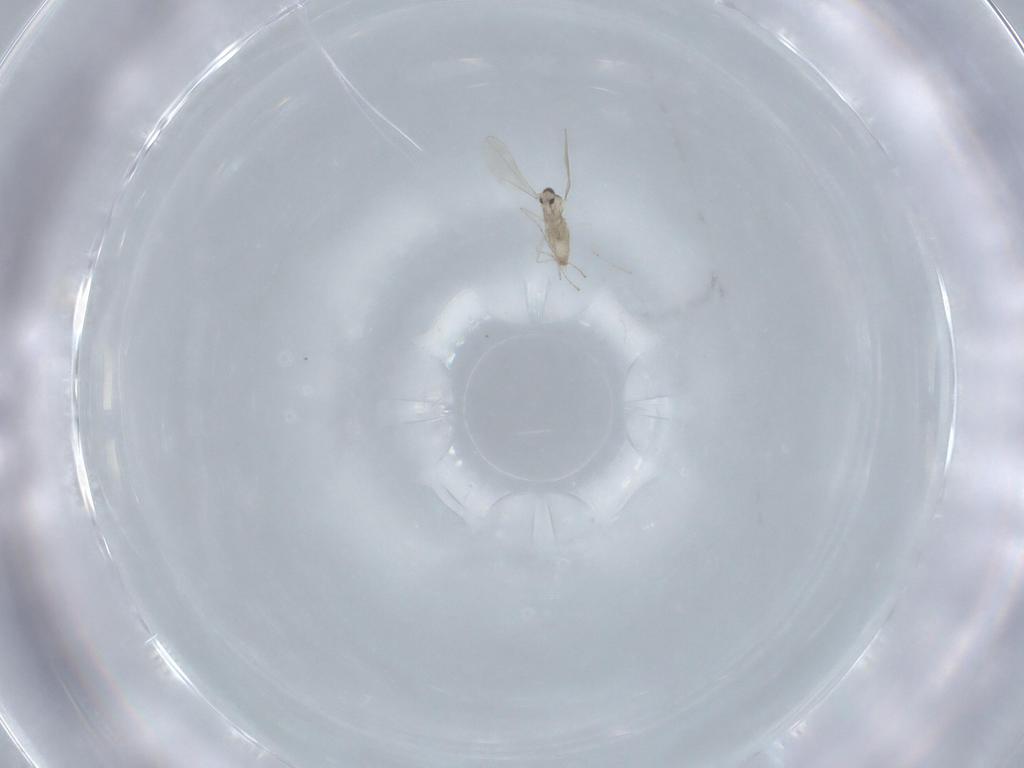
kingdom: Animalia
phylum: Arthropoda
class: Insecta
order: Diptera
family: Cecidomyiidae
